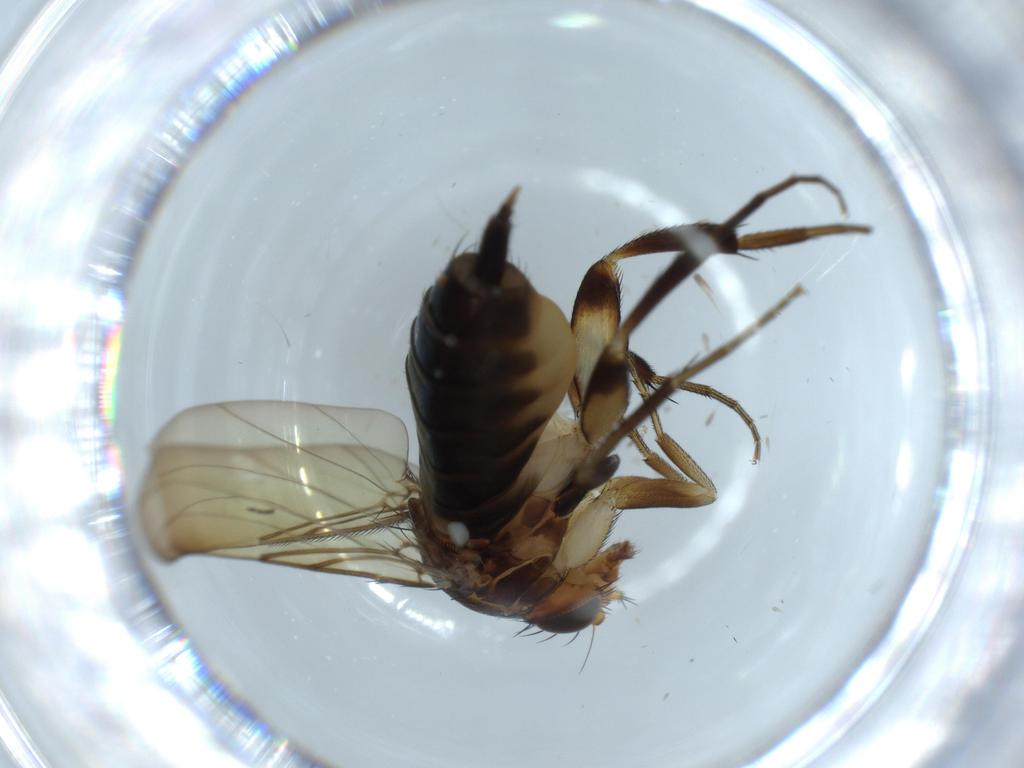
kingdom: Animalia
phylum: Arthropoda
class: Insecta
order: Diptera
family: Phoridae
